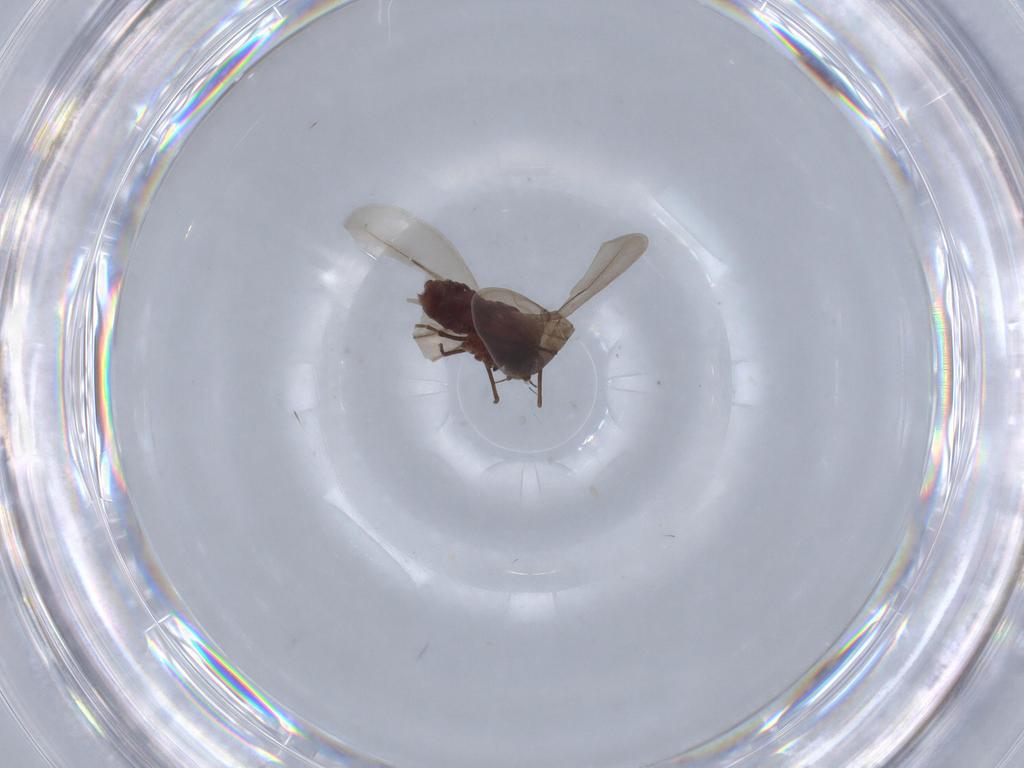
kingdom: Animalia
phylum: Arthropoda
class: Insecta
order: Hemiptera
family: Aleyrodidae
